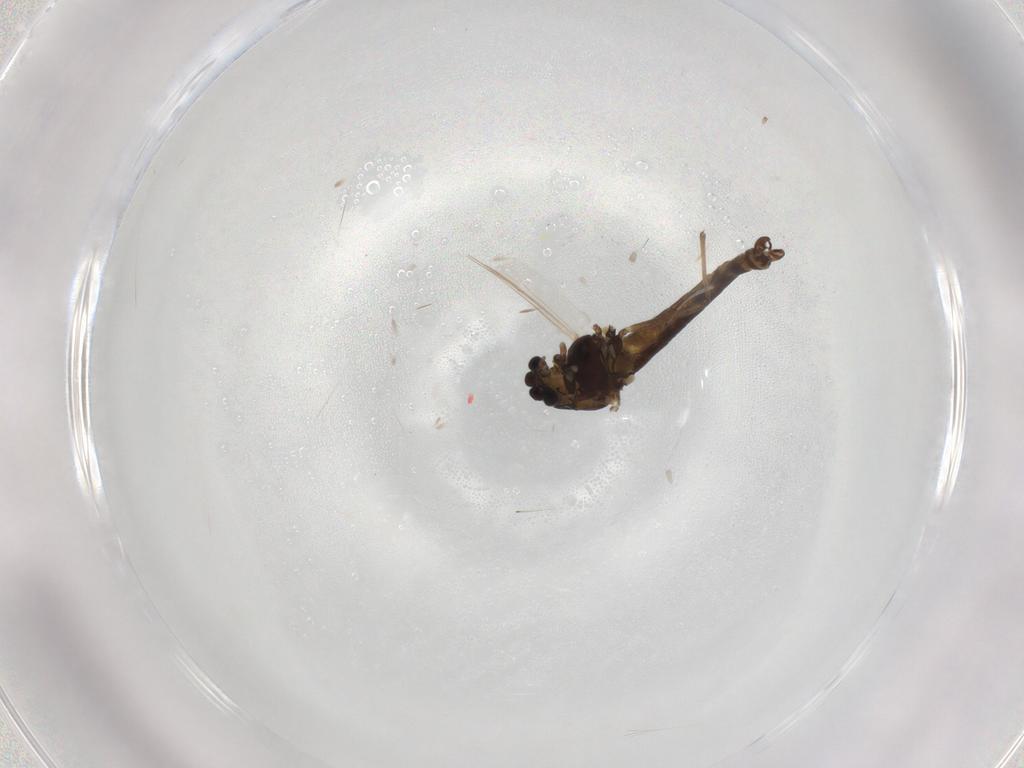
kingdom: Animalia
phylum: Arthropoda
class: Insecta
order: Diptera
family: Chironomidae
